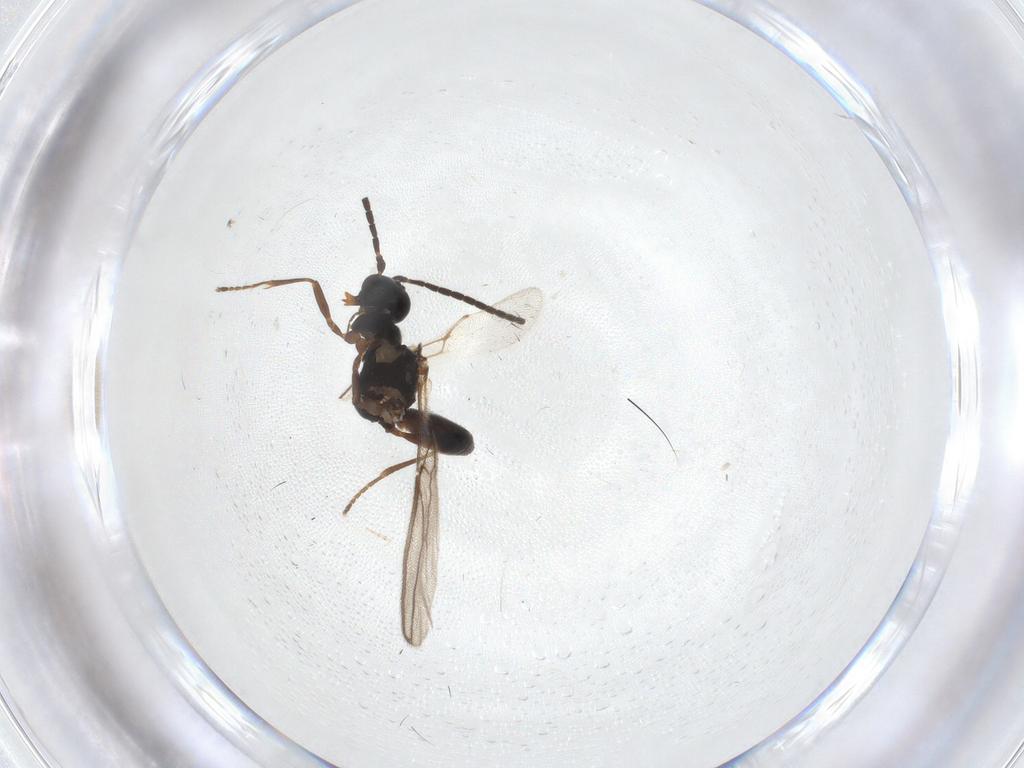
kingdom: Animalia
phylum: Arthropoda
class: Insecta
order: Hymenoptera
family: Braconidae
